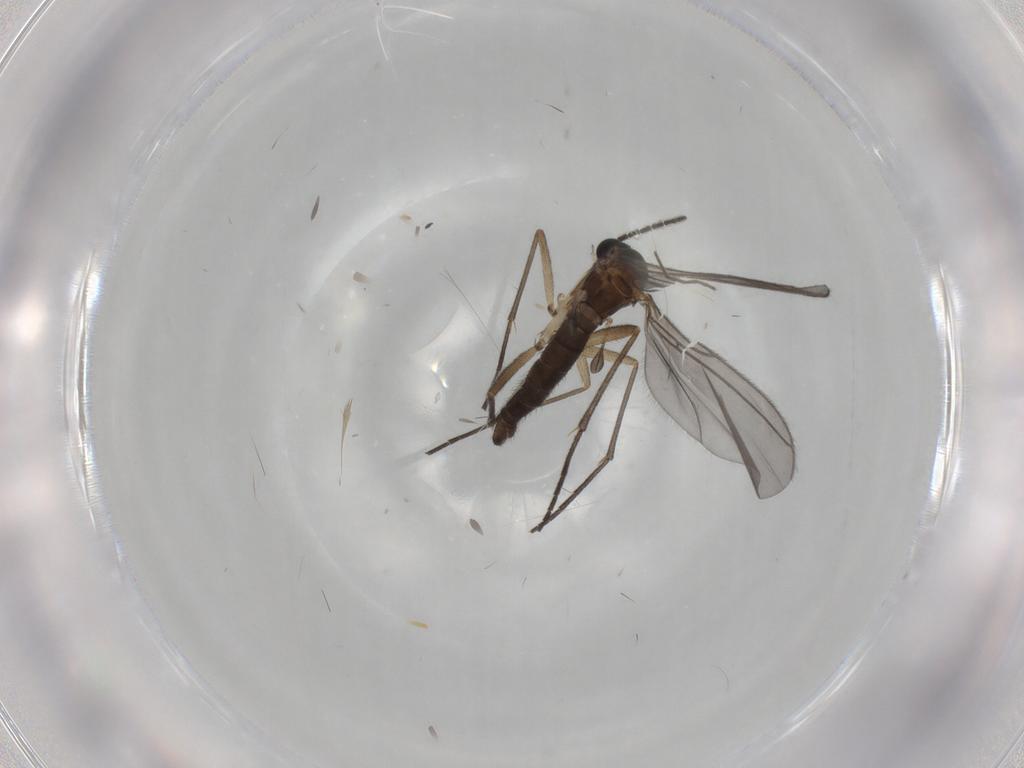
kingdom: Animalia
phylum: Arthropoda
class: Insecta
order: Diptera
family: Sciaridae
